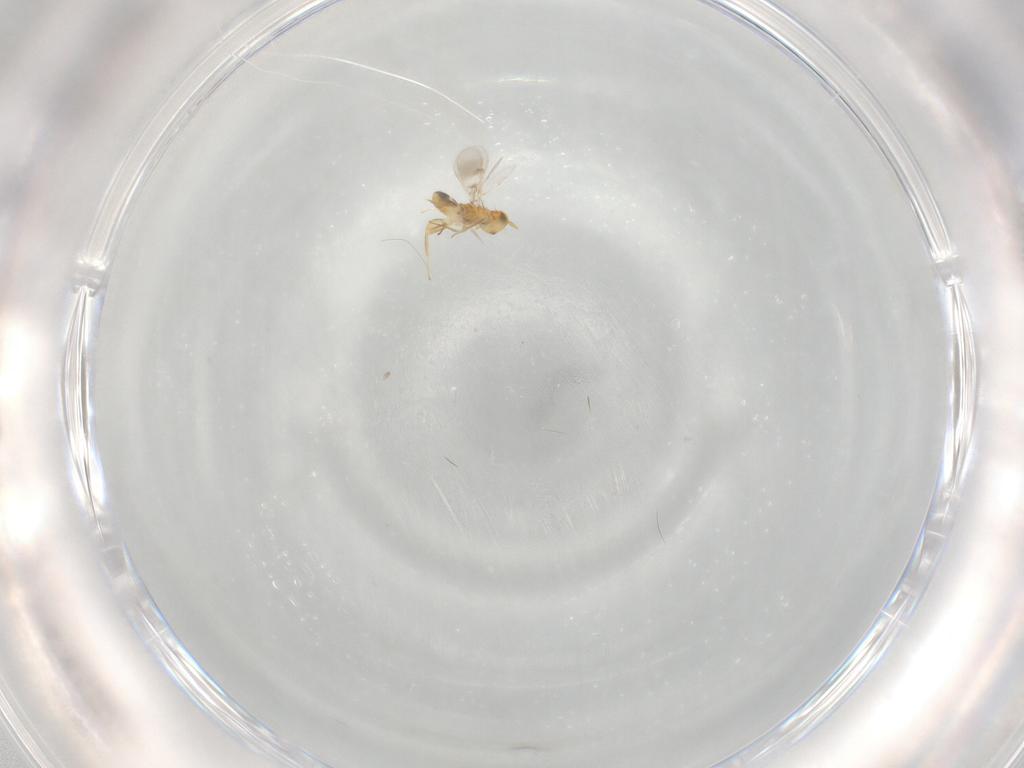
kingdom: Animalia
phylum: Arthropoda
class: Insecta
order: Hymenoptera
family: Aphelinidae
